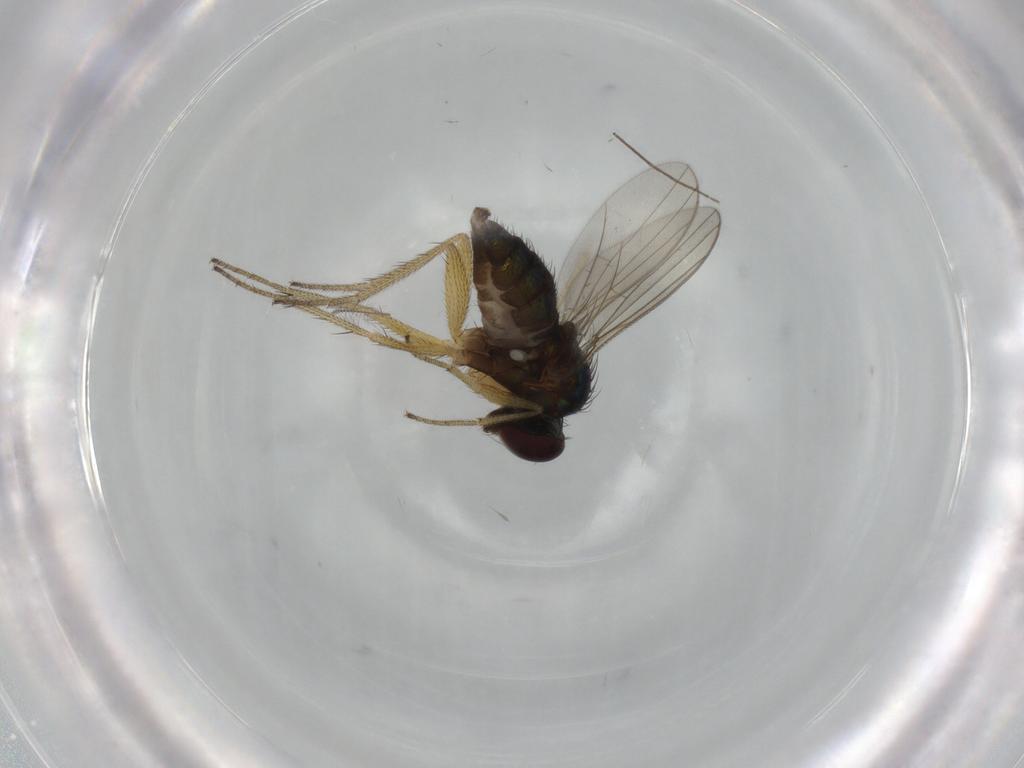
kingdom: Animalia
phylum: Arthropoda
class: Insecta
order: Diptera
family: Dolichopodidae
